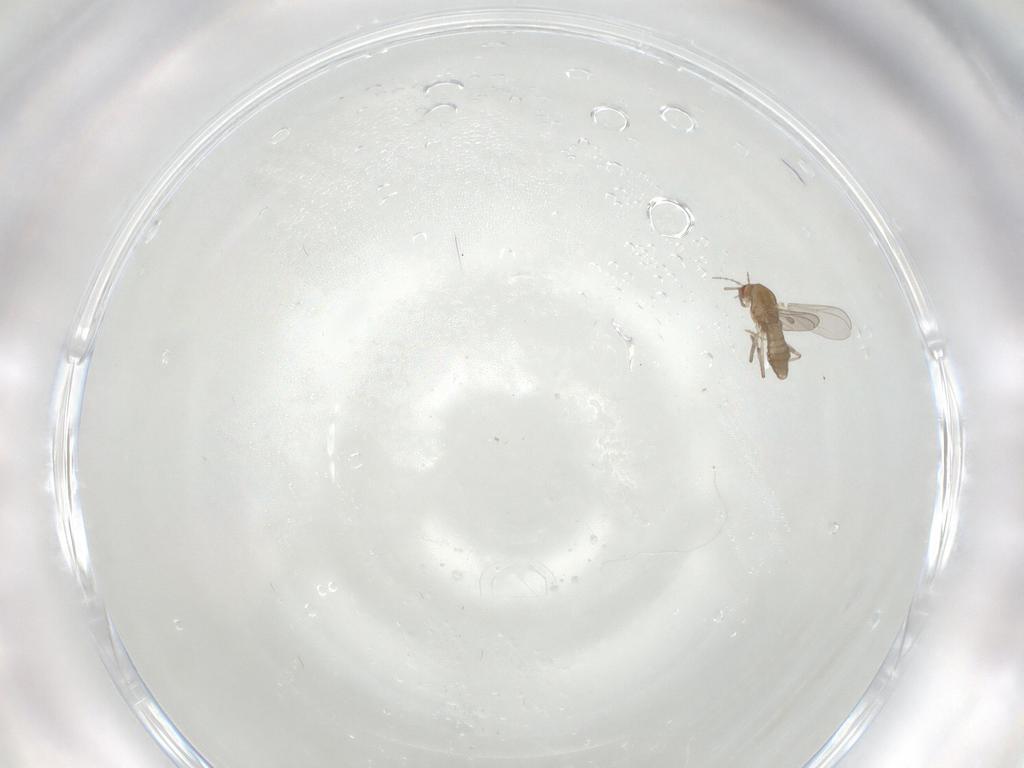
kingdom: Animalia
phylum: Arthropoda
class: Insecta
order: Diptera
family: Chironomidae
